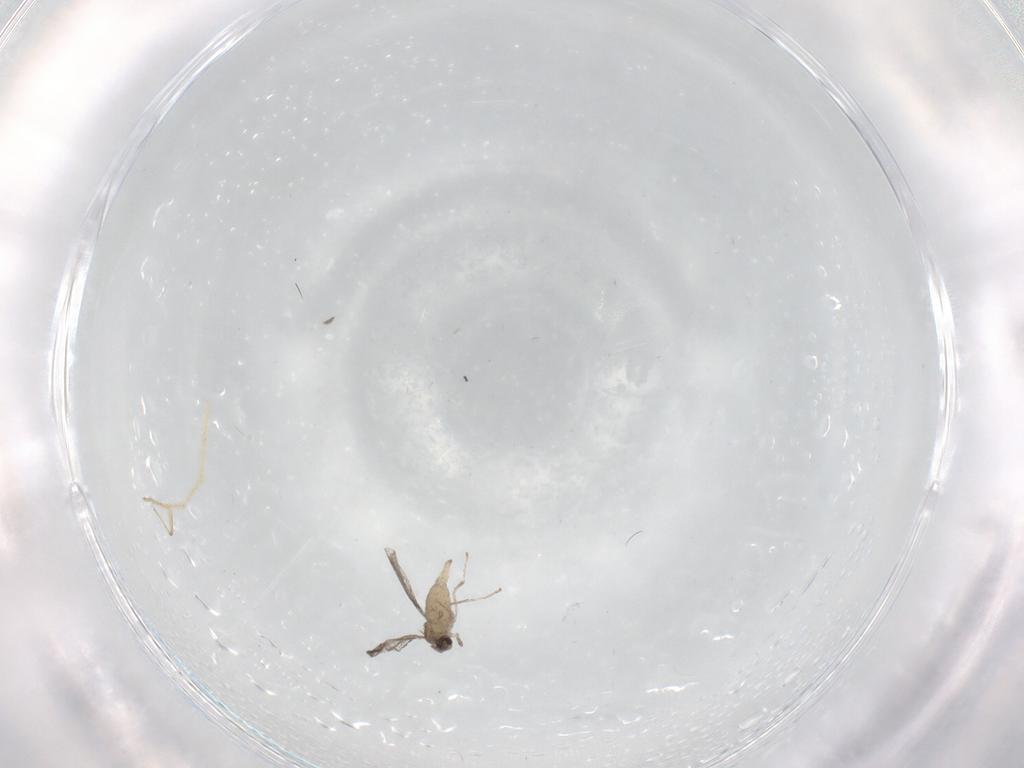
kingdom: Animalia
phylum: Arthropoda
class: Insecta
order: Diptera
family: Cecidomyiidae
